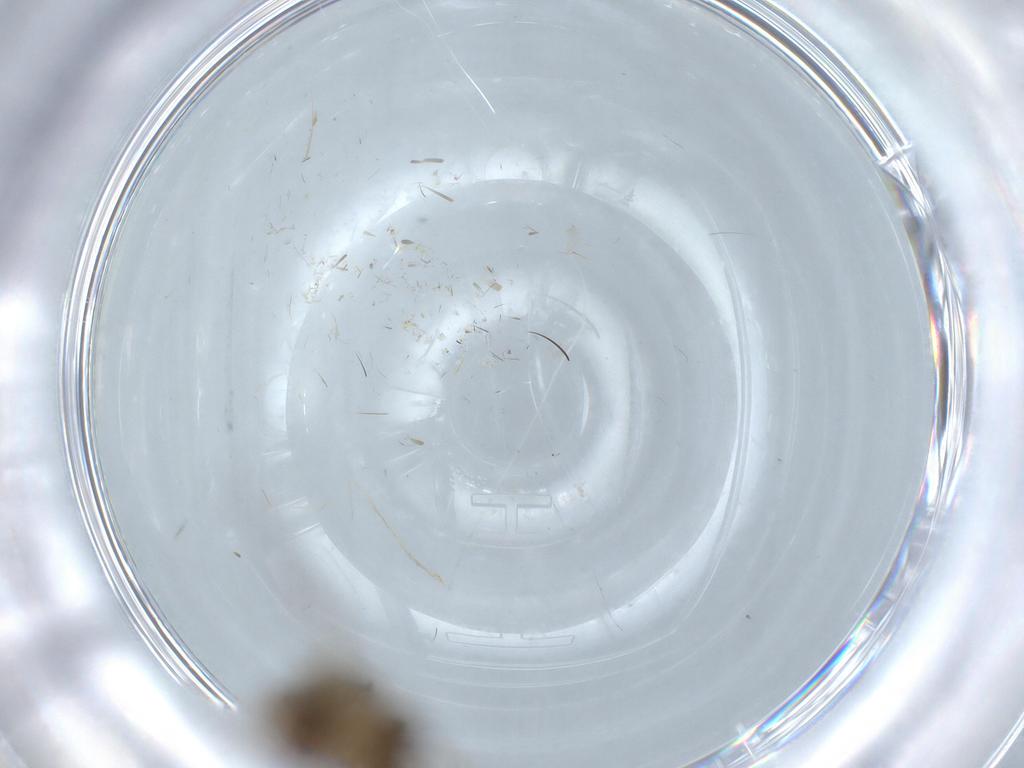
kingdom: Animalia
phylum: Arthropoda
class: Insecta
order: Diptera
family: Phoridae
